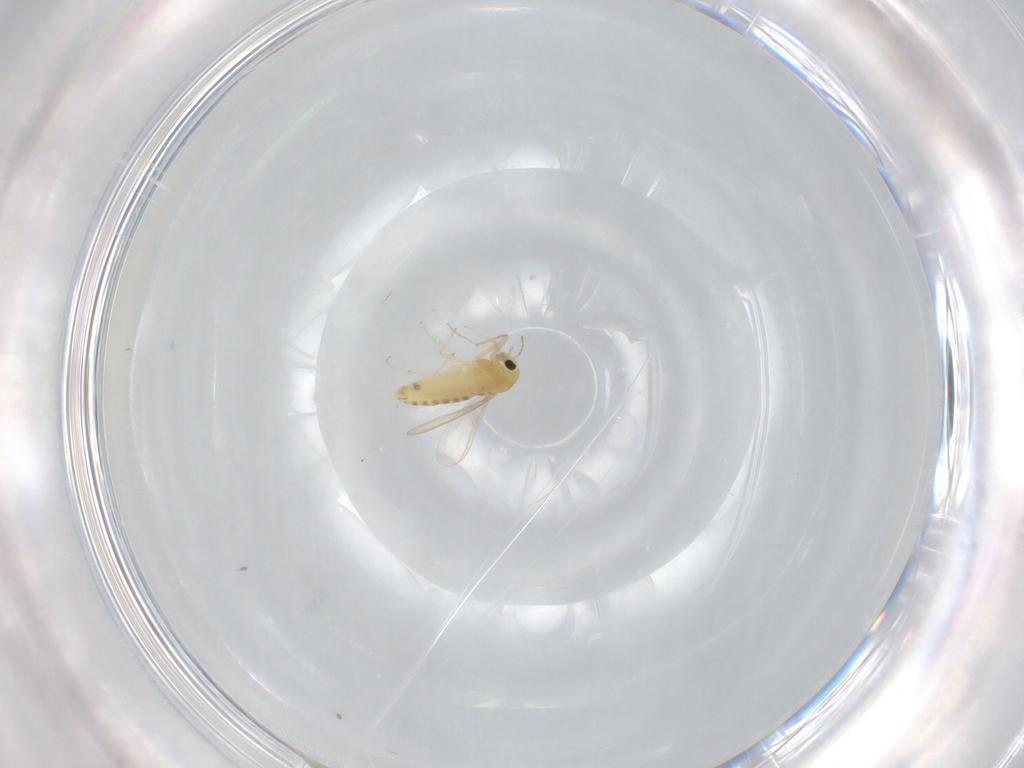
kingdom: Animalia
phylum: Arthropoda
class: Insecta
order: Diptera
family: Chironomidae
